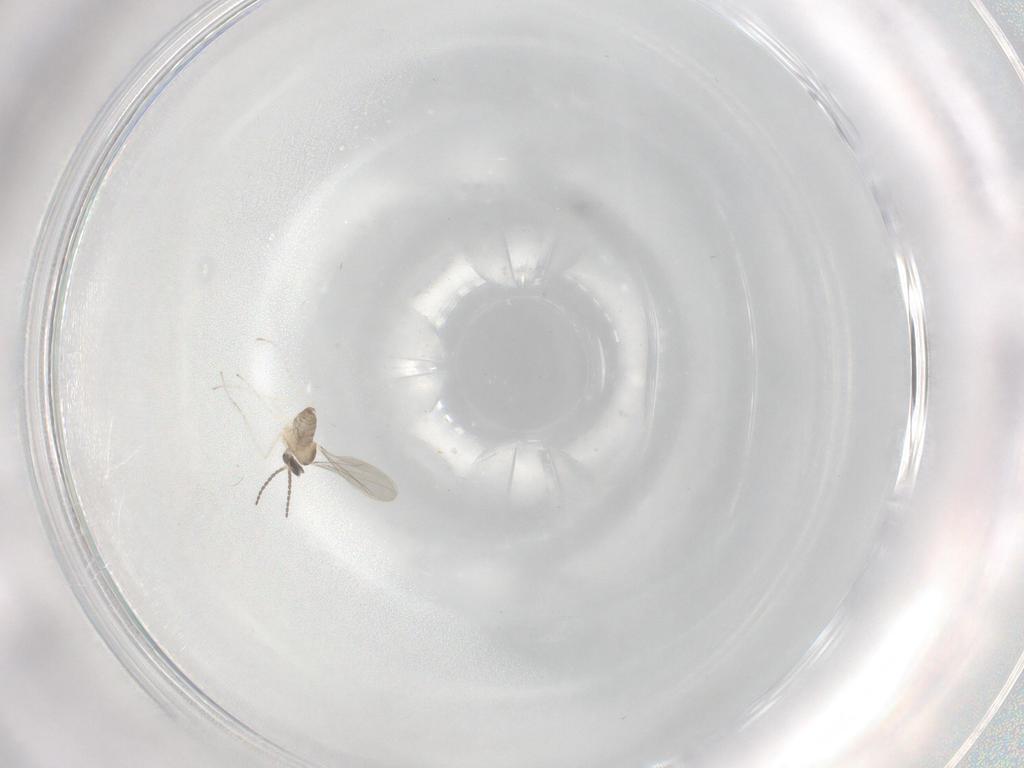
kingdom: Animalia
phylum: Arthropoda
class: Insecta
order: Diptera
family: Cecidomyiidae
